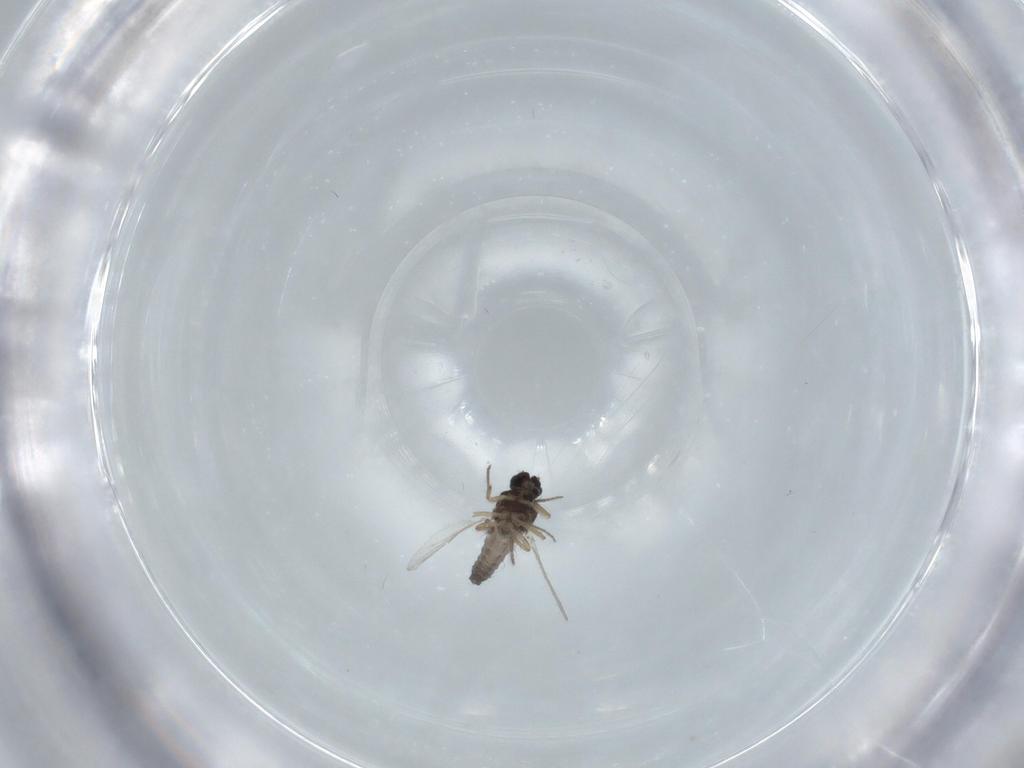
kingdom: Animalia
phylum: Arthropoda
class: Insecta
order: Diptera
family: Ceratopogonidae
